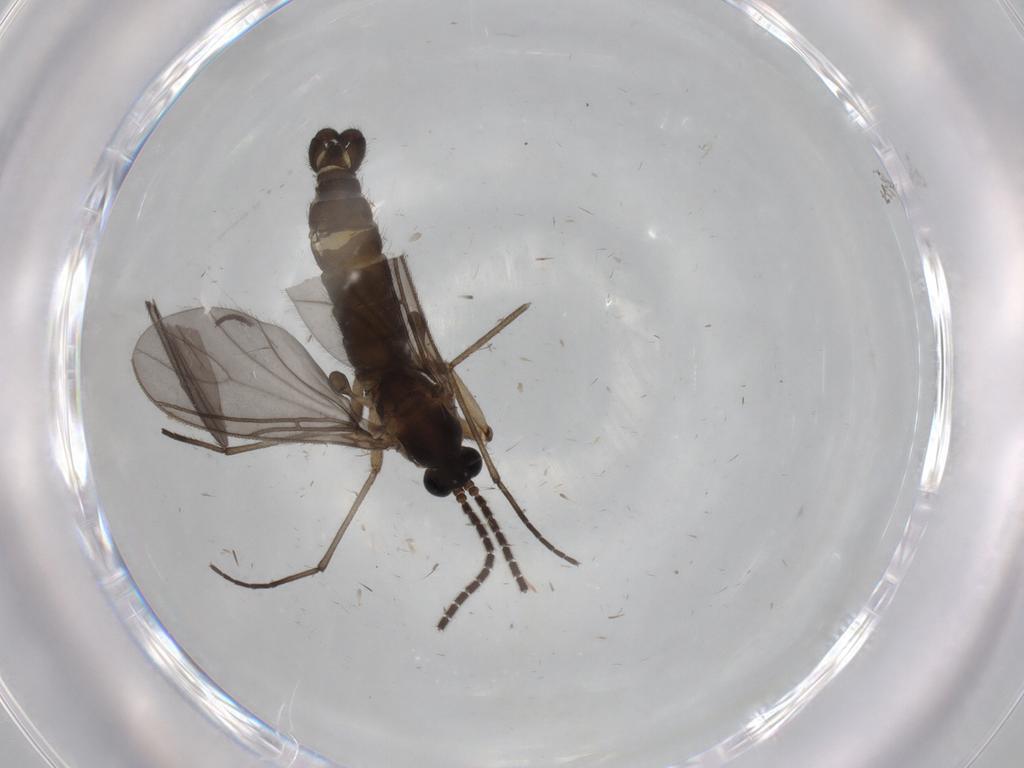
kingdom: Animalia
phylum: Arthropoda
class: Insecta
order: Diptera
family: Sciaridae
